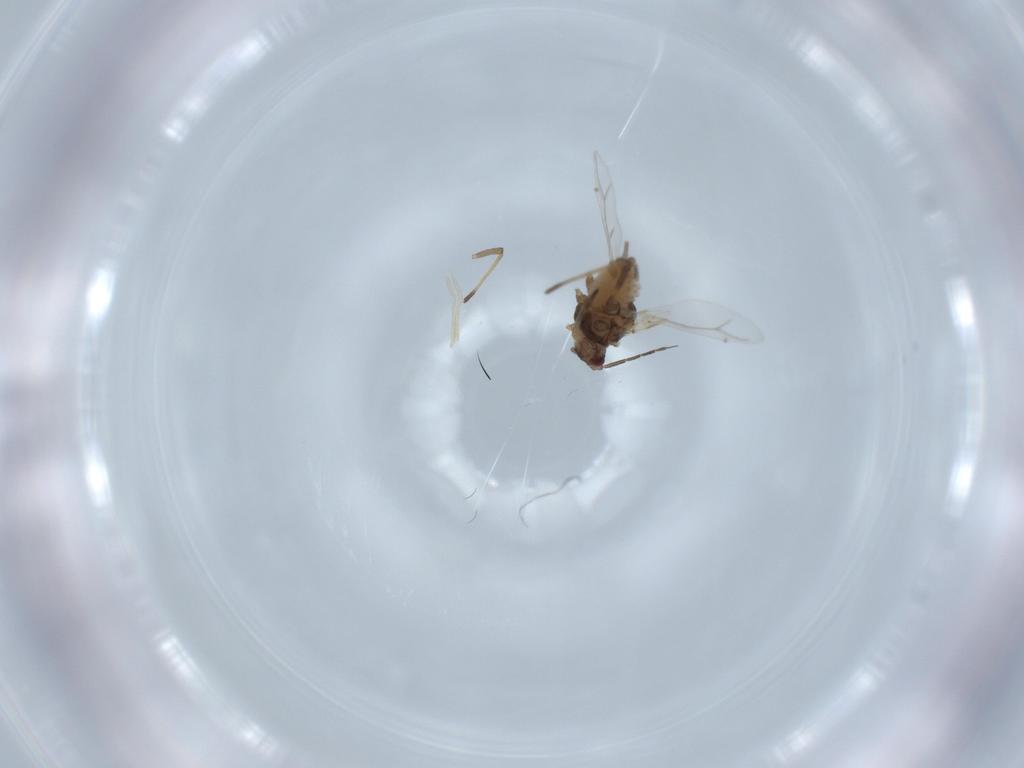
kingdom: Animalia
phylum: Arthropoda
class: Insecta
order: Hemiptera
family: Aphididae
